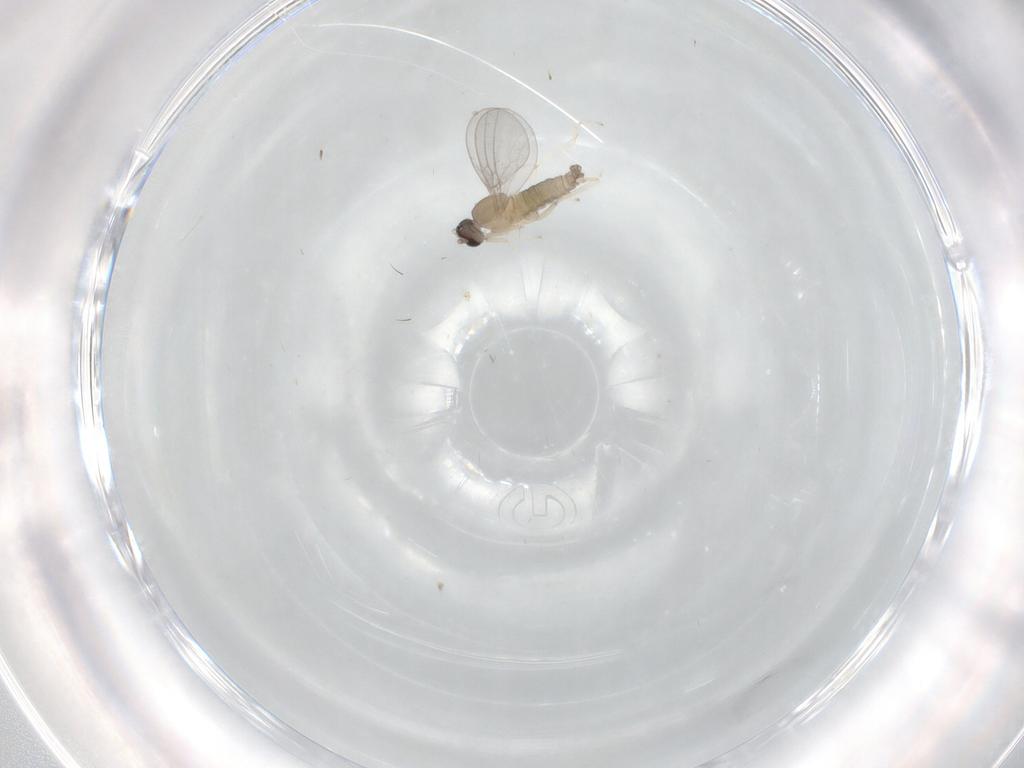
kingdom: Animalia
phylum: Arthropoda
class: Insecta
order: Diptera
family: Cecidomyiidae
